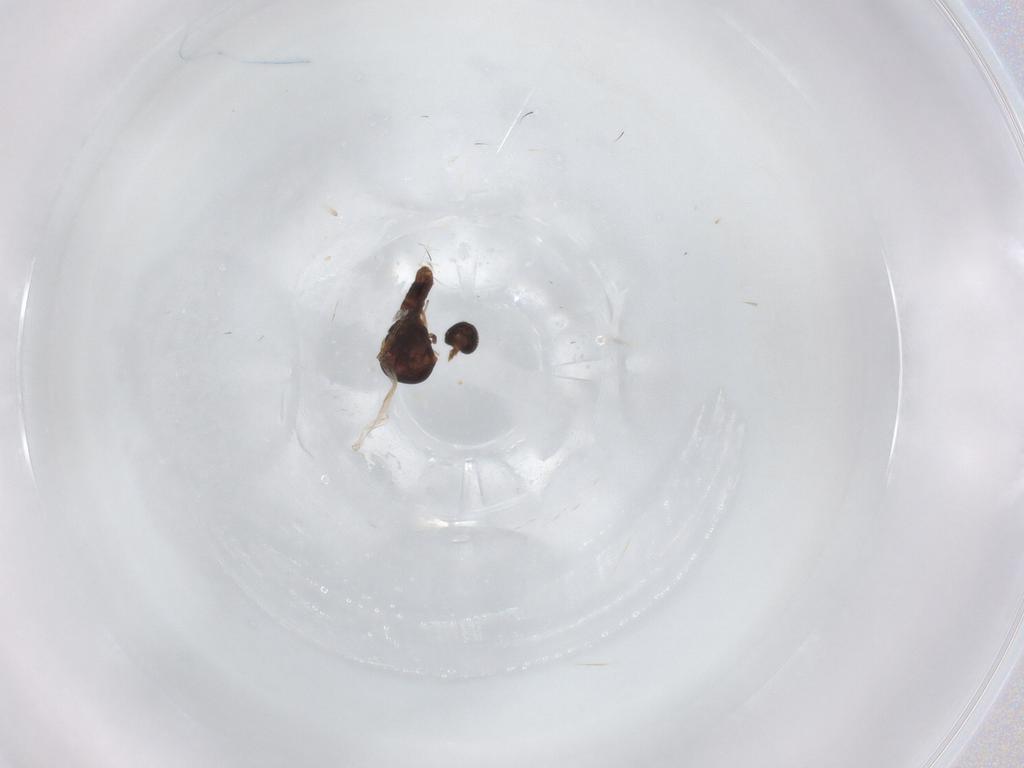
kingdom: Animalia
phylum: Arthropoda
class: Insecta
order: Diptera
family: Ceratopogonidae
